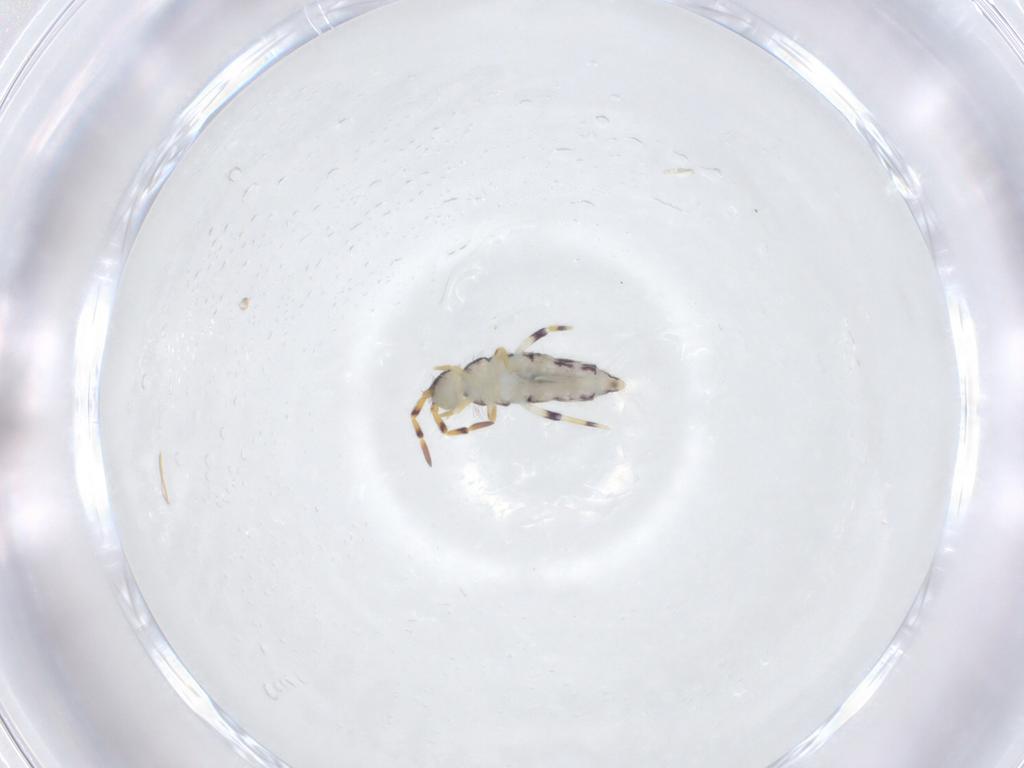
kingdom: Animalia
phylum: Arthropoda
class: Collembola
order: Entomobryomorpha
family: Isotomidae
